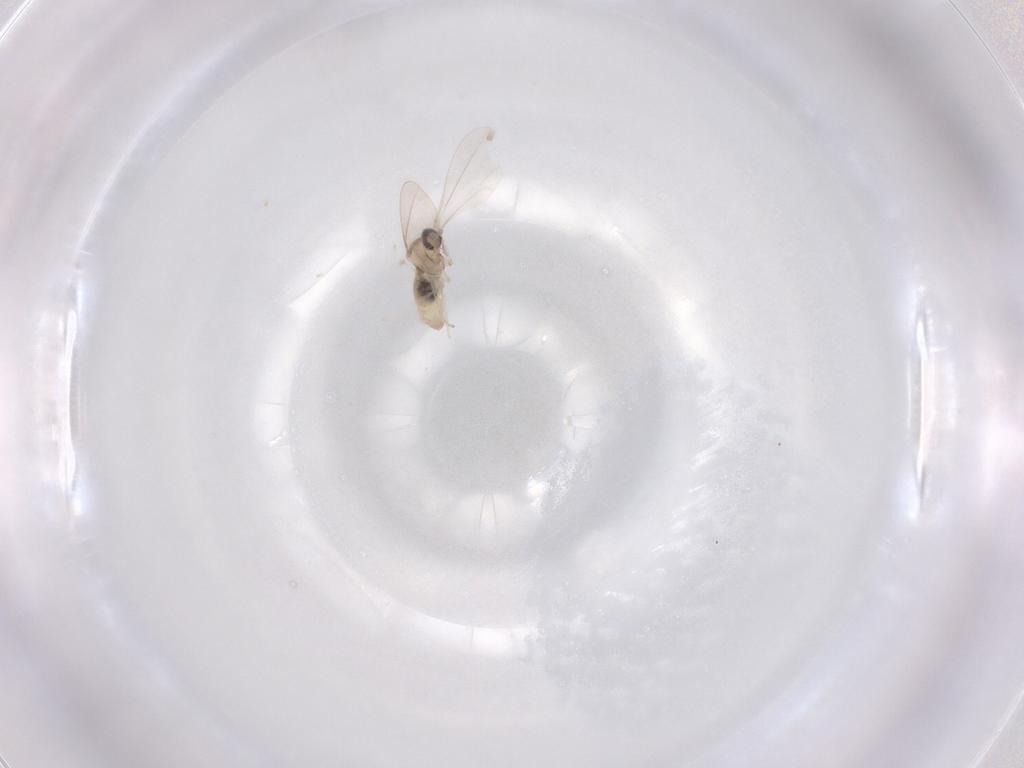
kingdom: Animalia
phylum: Arthropoda
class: Insecta
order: Diptera
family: Cecidomyiidae
